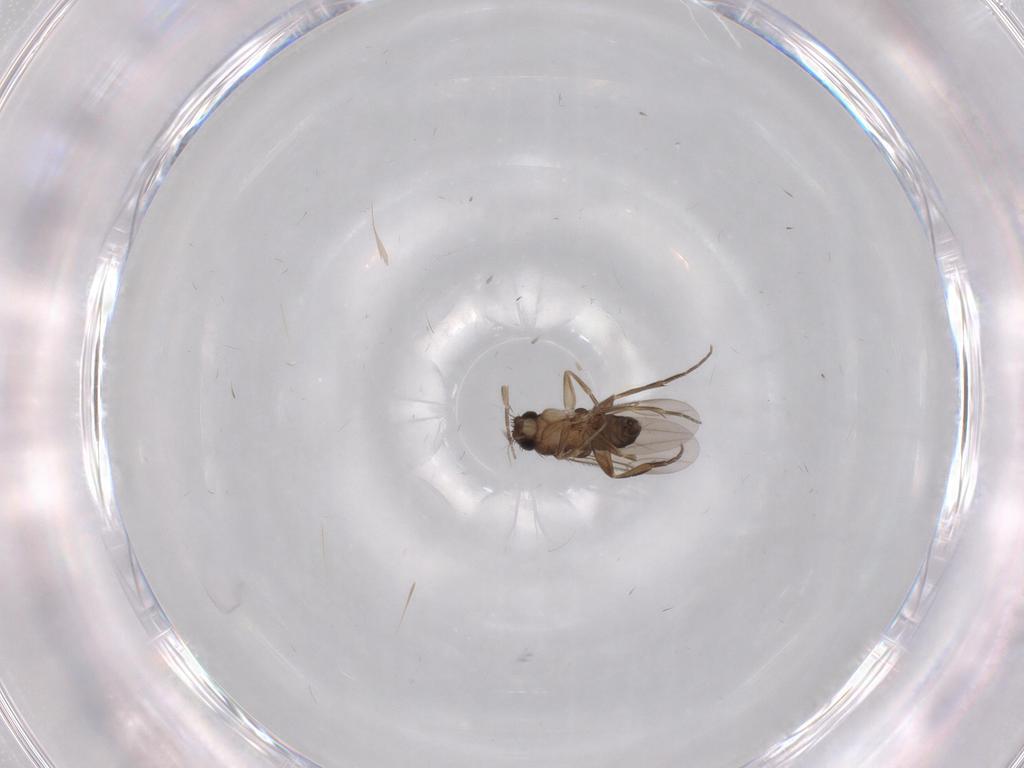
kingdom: Animalia
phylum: Arthropoda
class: Insecta
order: Diptera
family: Phoridae
